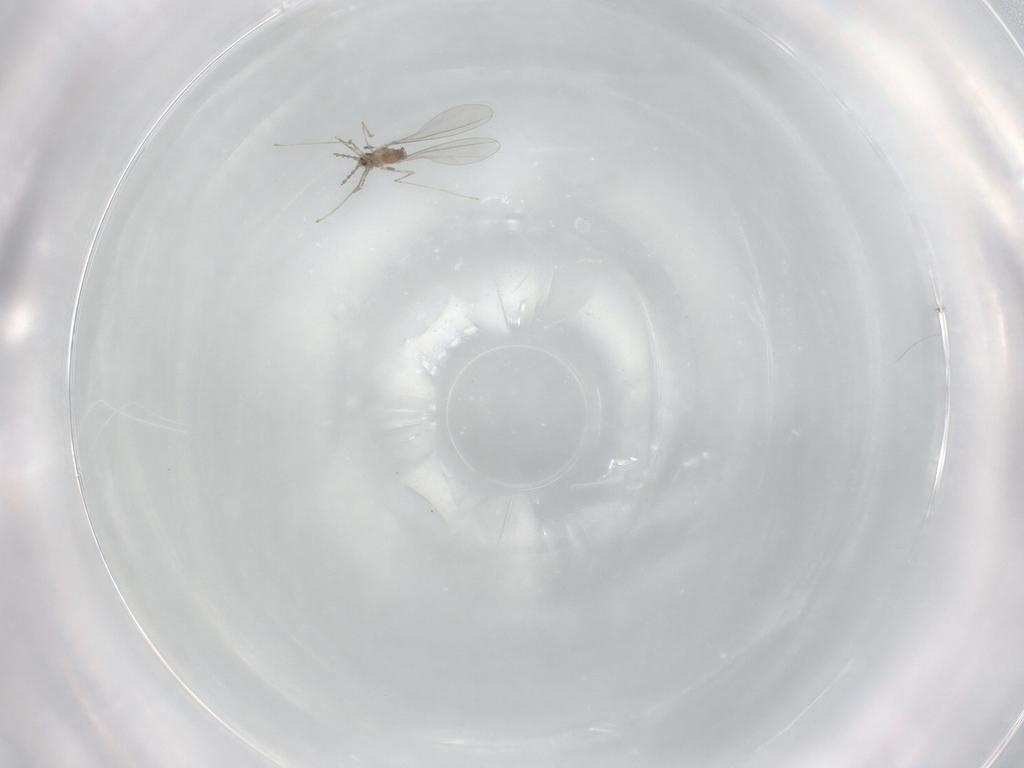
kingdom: Animalia
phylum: Arthropoda
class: Insecta
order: Diptera
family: Cecidomyiidae
